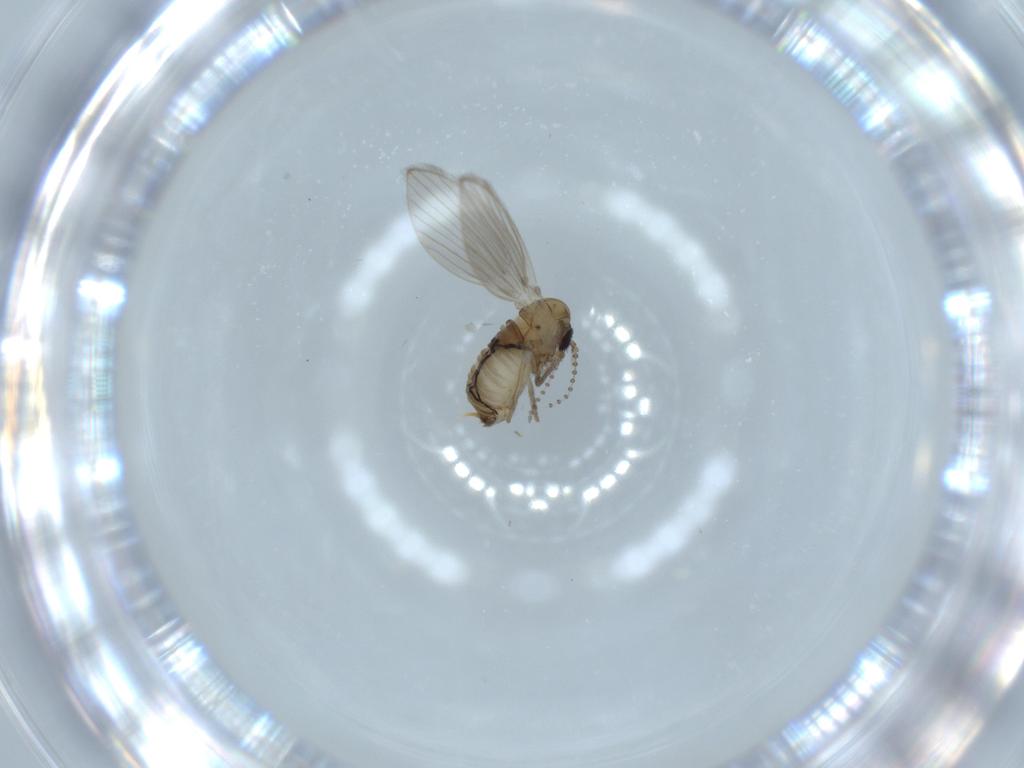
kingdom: Animalia
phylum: Arthropoda
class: Insecta
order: Diptera
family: Psychodidae
